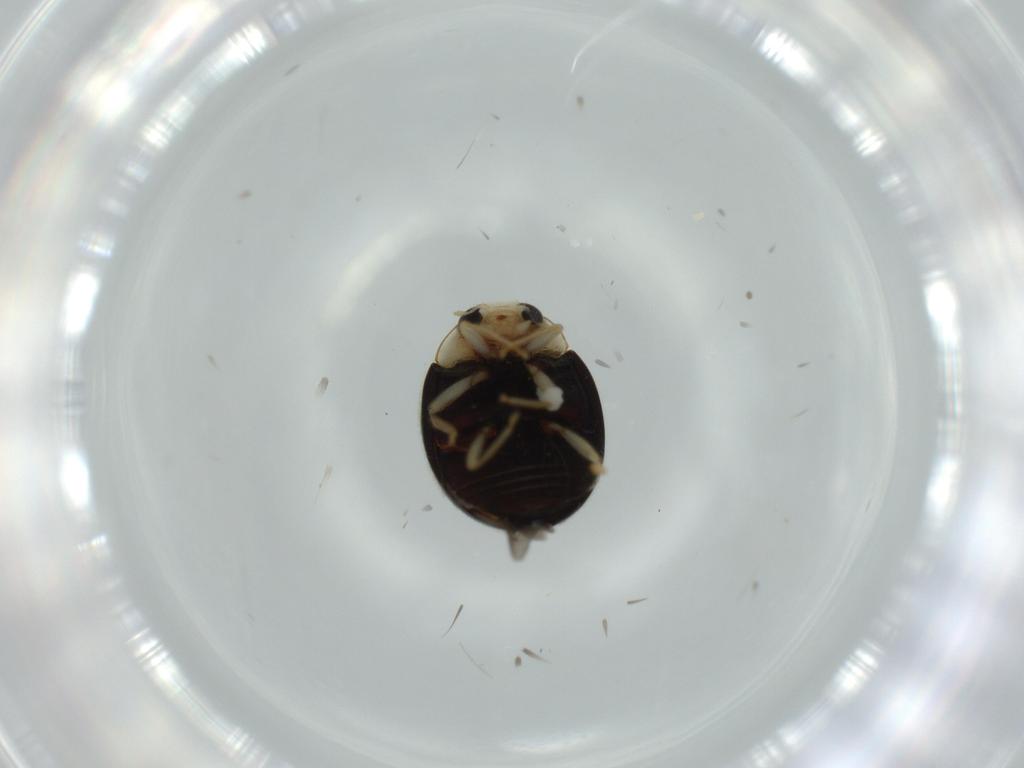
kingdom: Animalia
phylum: Arthropoda
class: Insecta
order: Coleoptera
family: Coccinellidae
